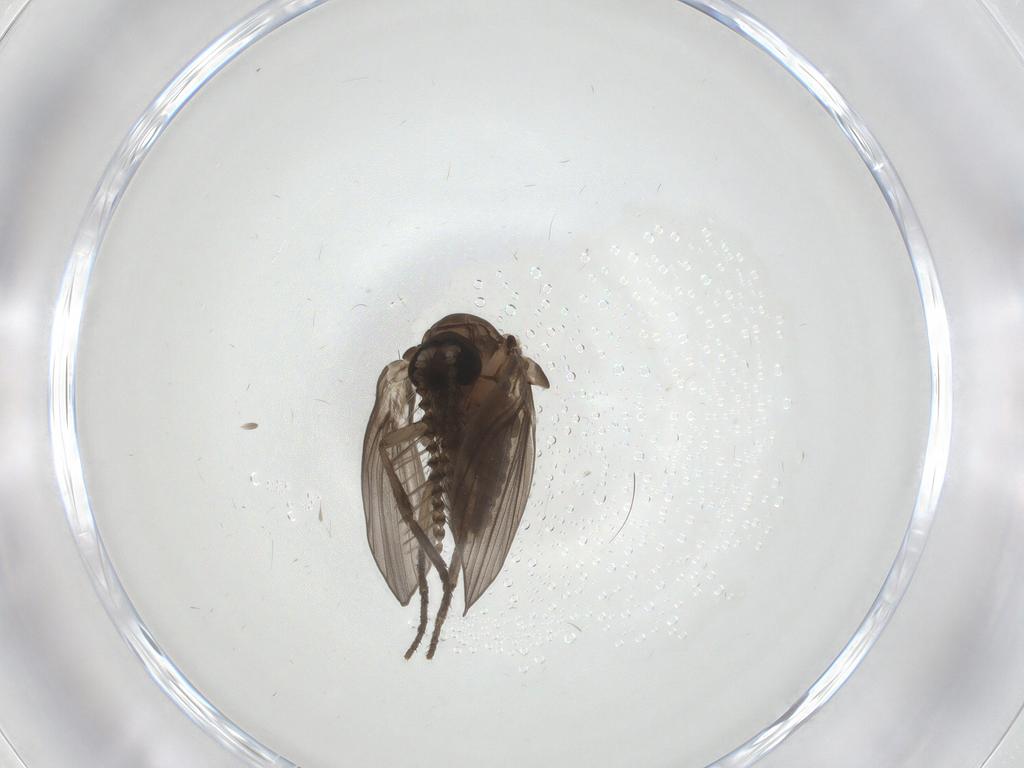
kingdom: Animalia
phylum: Arthropoda
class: Insecta
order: Diptera
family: Psychodidae
